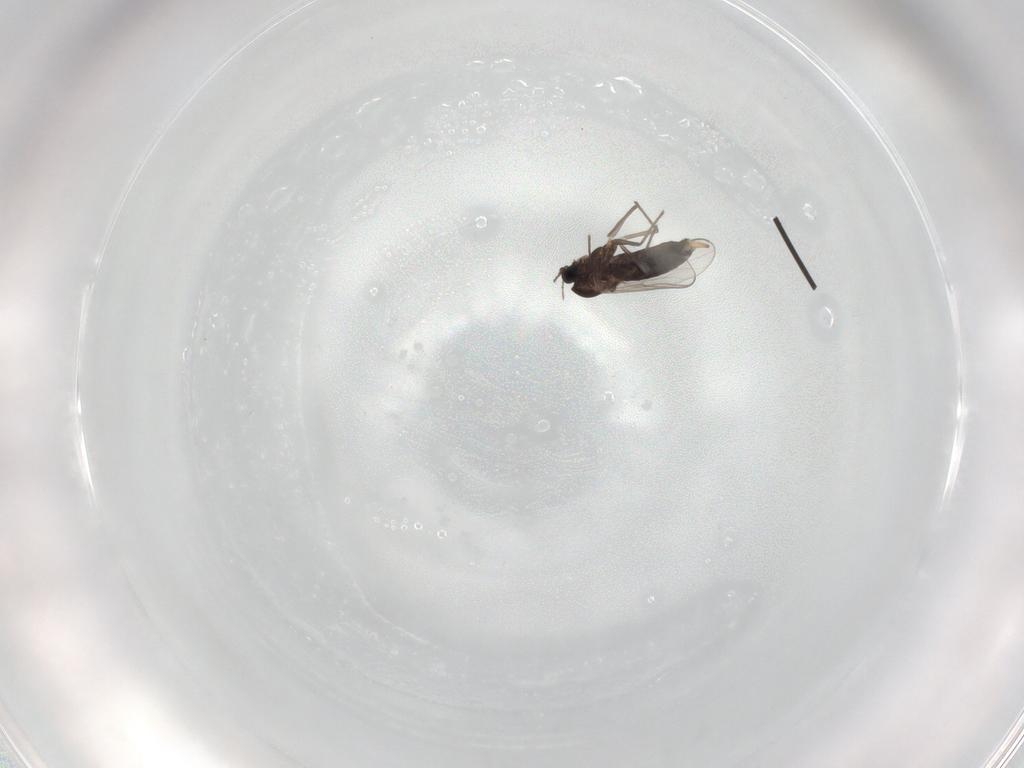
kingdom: Animalia
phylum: Arthropoda
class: Insecta
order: Diptera
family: Chironomidae
